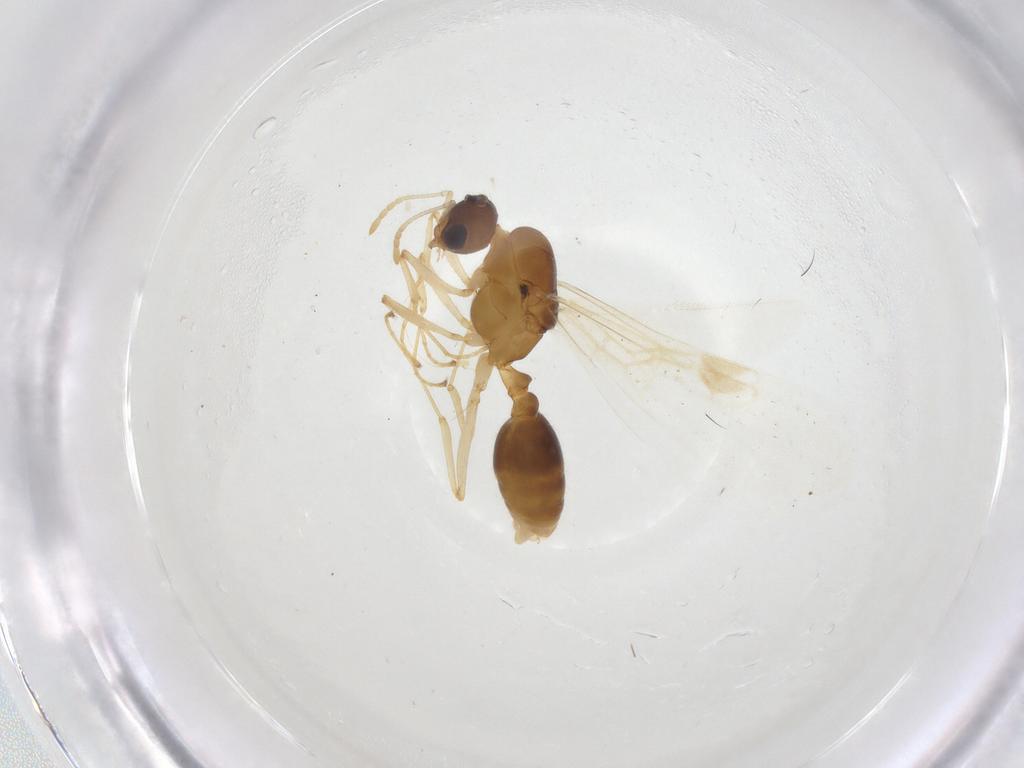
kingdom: Animalia
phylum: Arthropoda
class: Insecta
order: Hymenoptera
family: Formicidae
